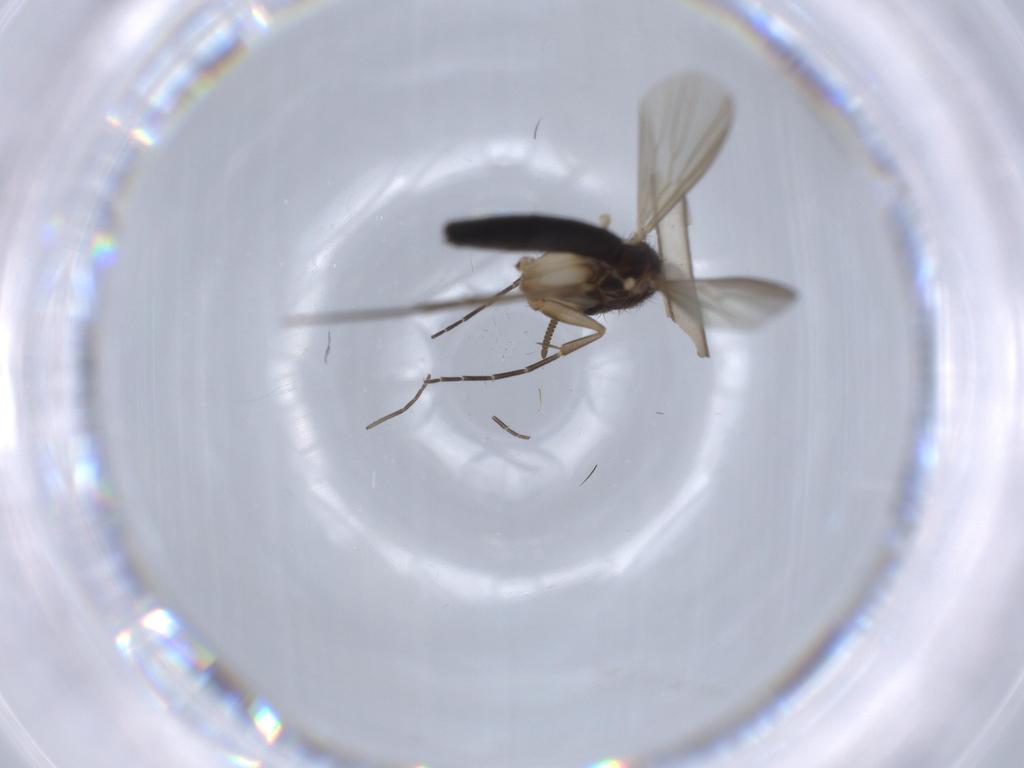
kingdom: Animalia
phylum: Arthropoda
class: Insecta
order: Diptera
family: Mycetophilidae
